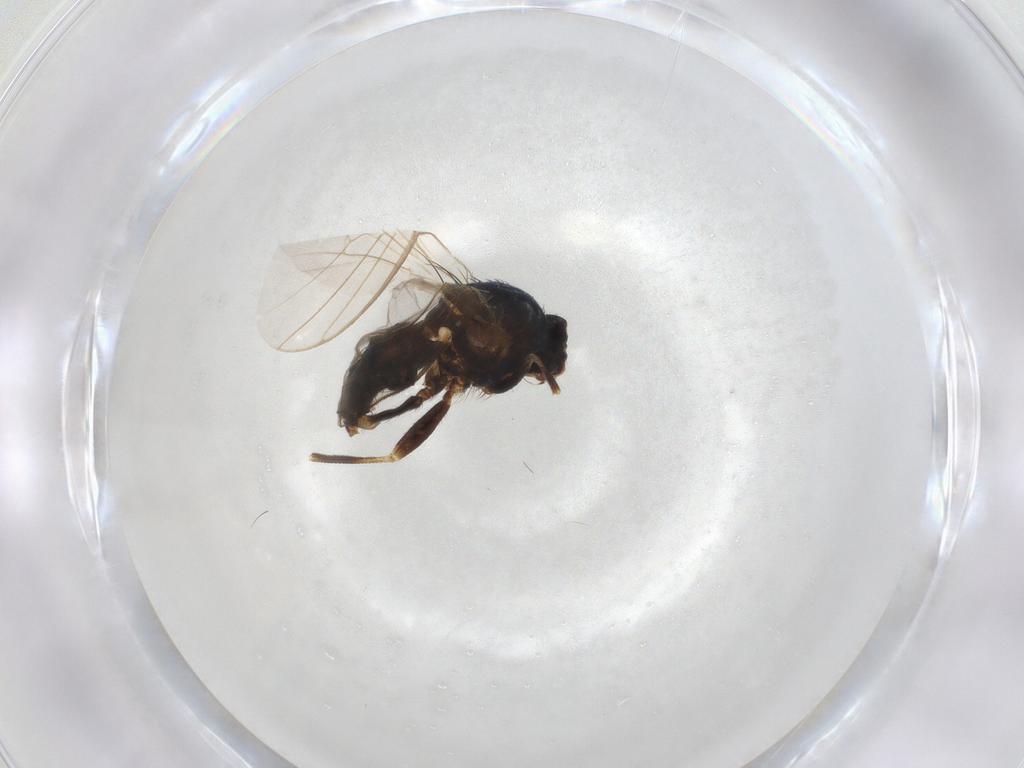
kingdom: Animalia
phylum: Arthropoda
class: Insecta
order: Diptera
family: Agromyzidae
